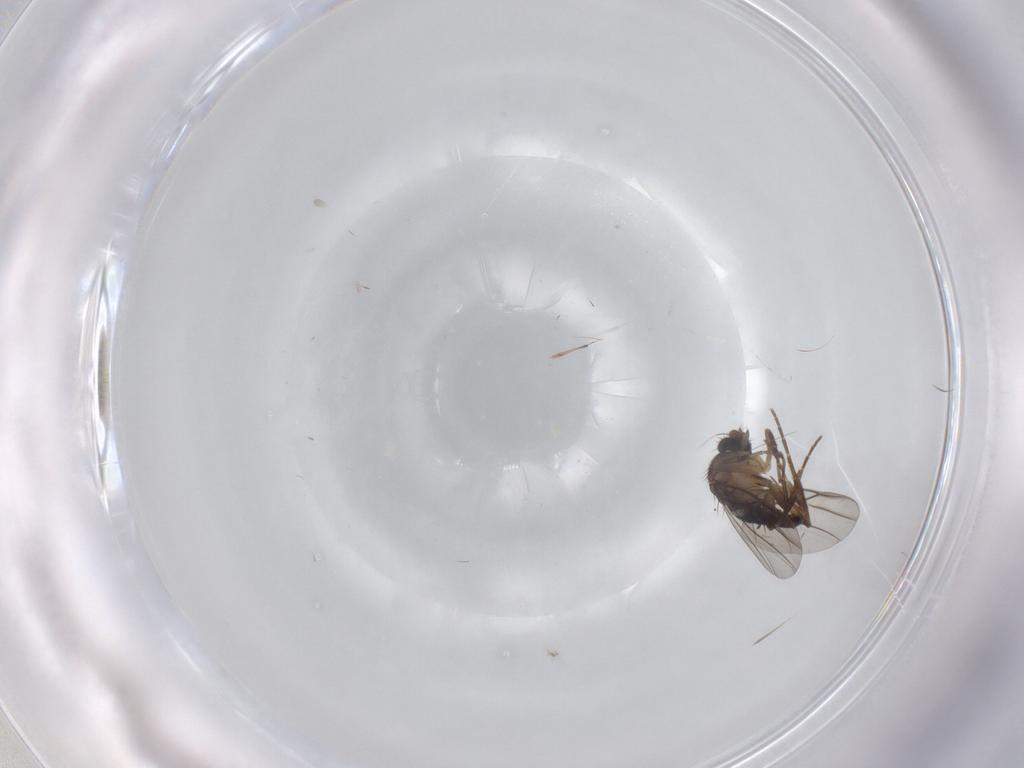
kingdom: Animalia
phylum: Arthropoda
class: Insecta
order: Diptera
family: Phoridae
